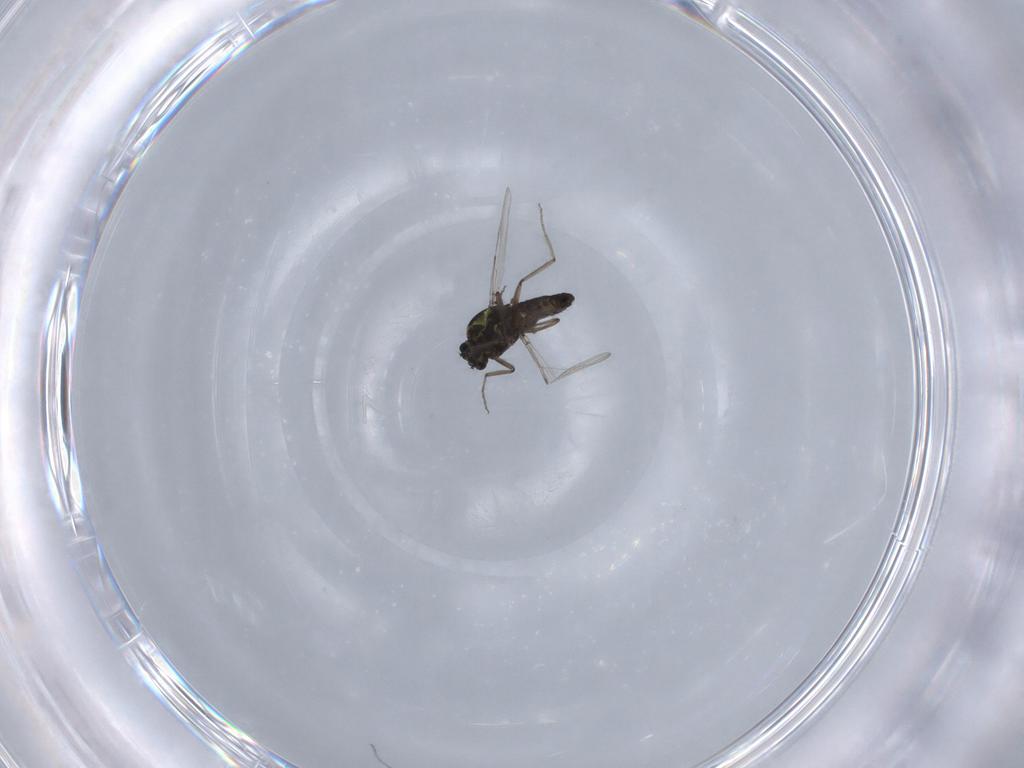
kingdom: Animalia
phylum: Arthropoda
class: Insecta
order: Diptera
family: Ceratopogonidae
